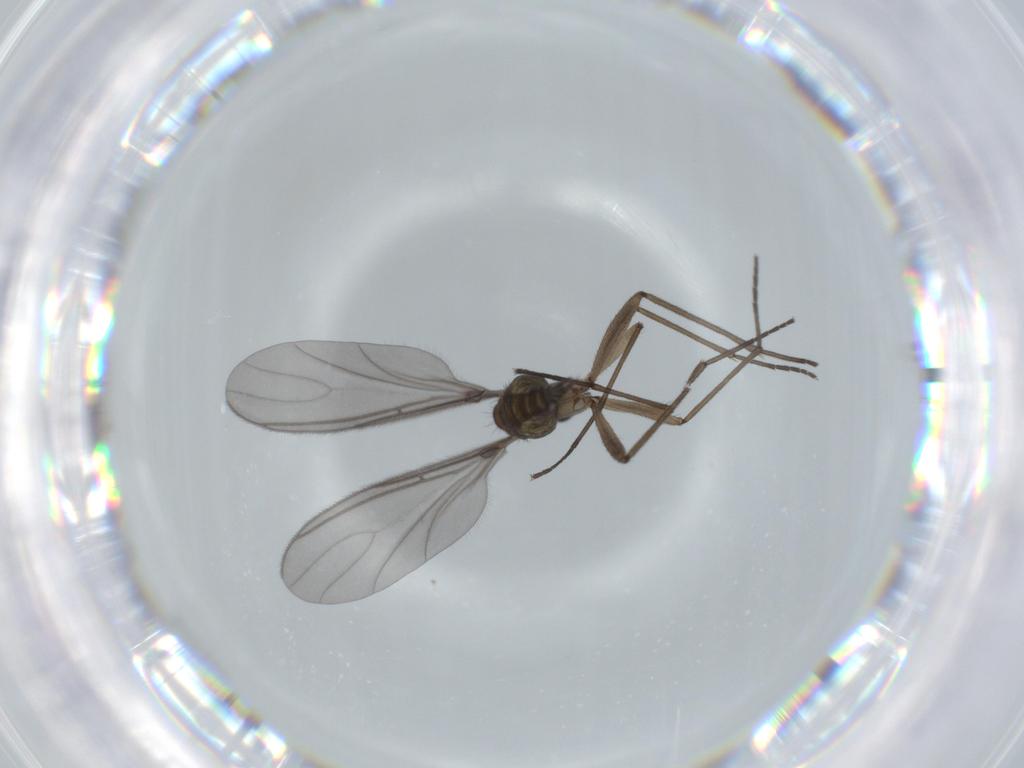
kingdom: Animalia
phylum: Arthropoda
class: Insecta
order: Diptera
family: Sciaridae
